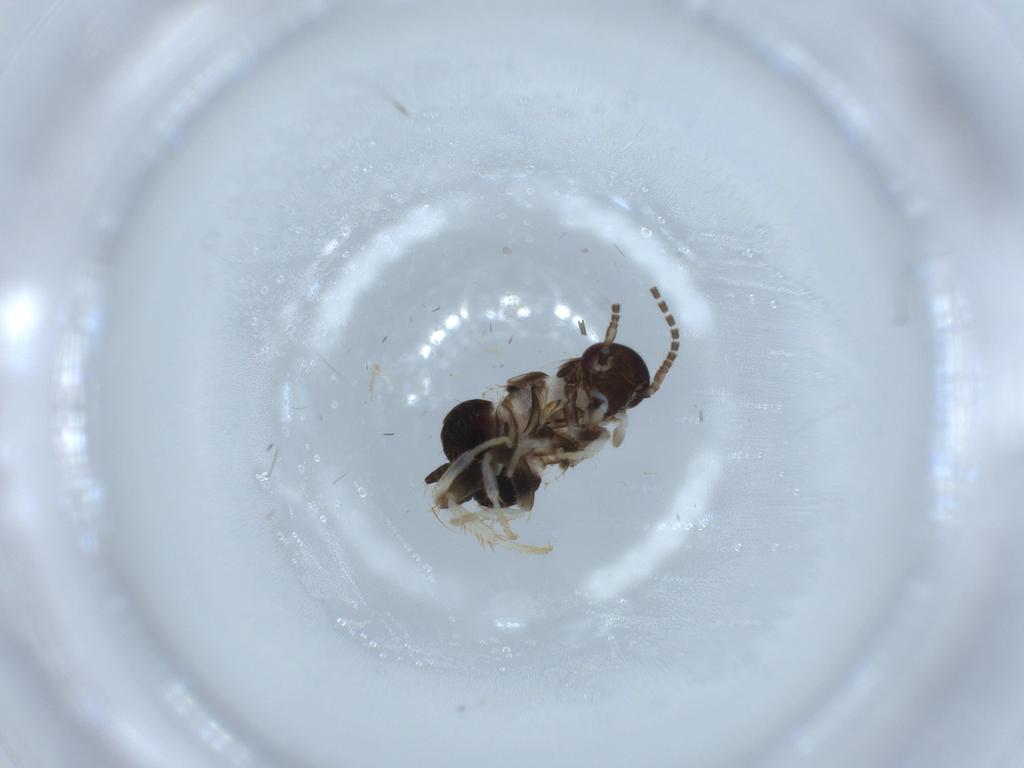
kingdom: Animalia
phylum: Arthropoda
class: Insecta
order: Blattodea
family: Ectobiidae
